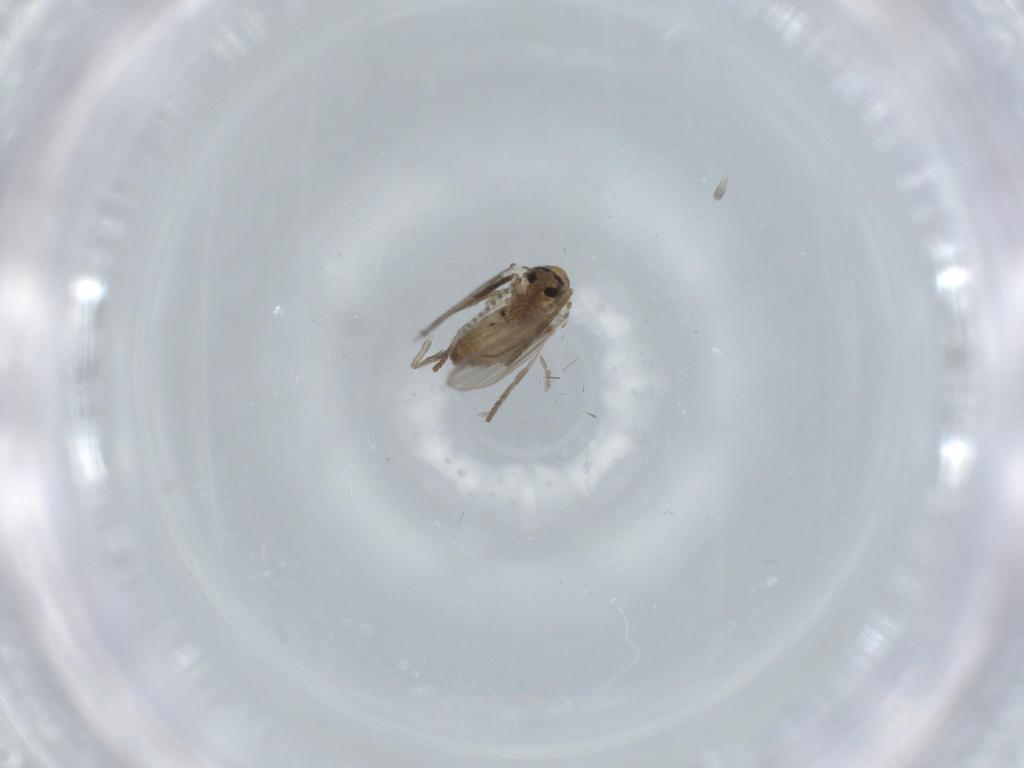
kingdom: Animalia
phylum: Arthropoda
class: Insecta
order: Diptera
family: Psychodidae
